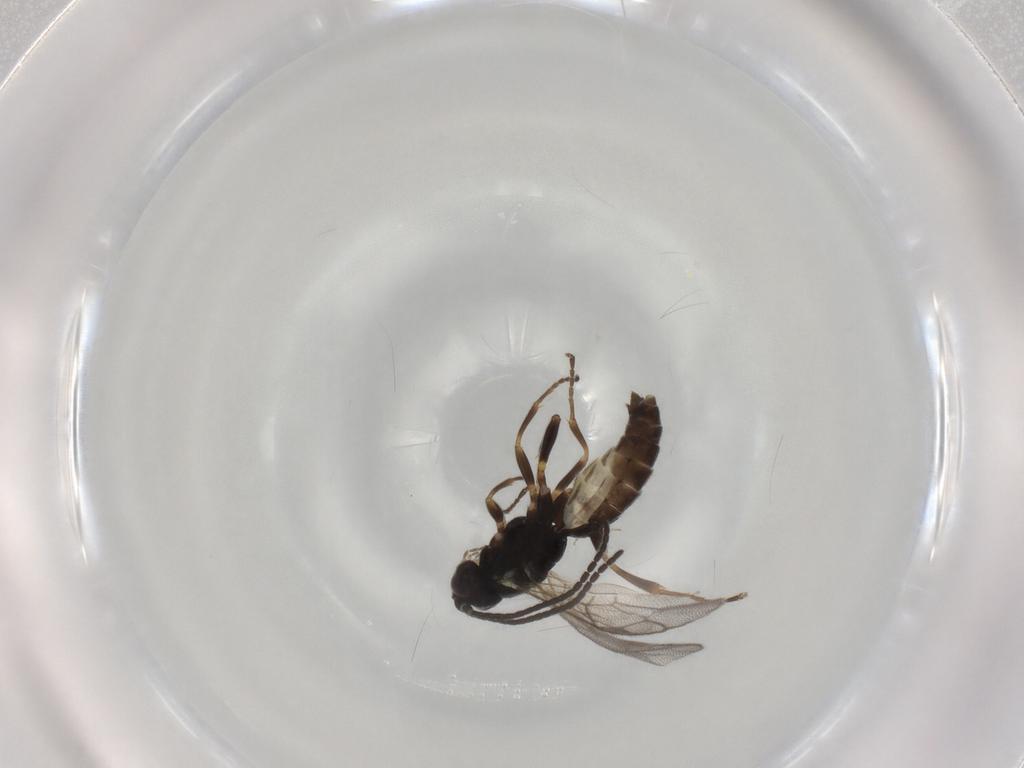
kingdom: Animalia
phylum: Arthropoda
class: Insecta
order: Hymenoptera
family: Ichneumonidae
